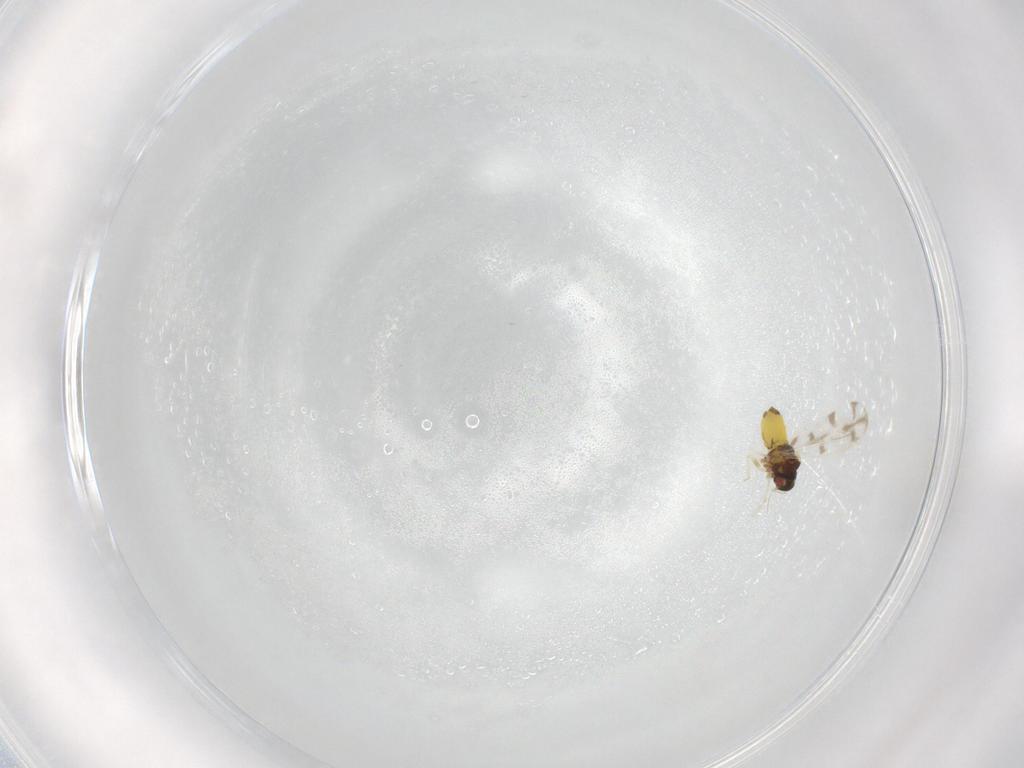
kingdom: Animalia
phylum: Arthropoda
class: Insecta
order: Hemiptera
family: Aleyrodidae
